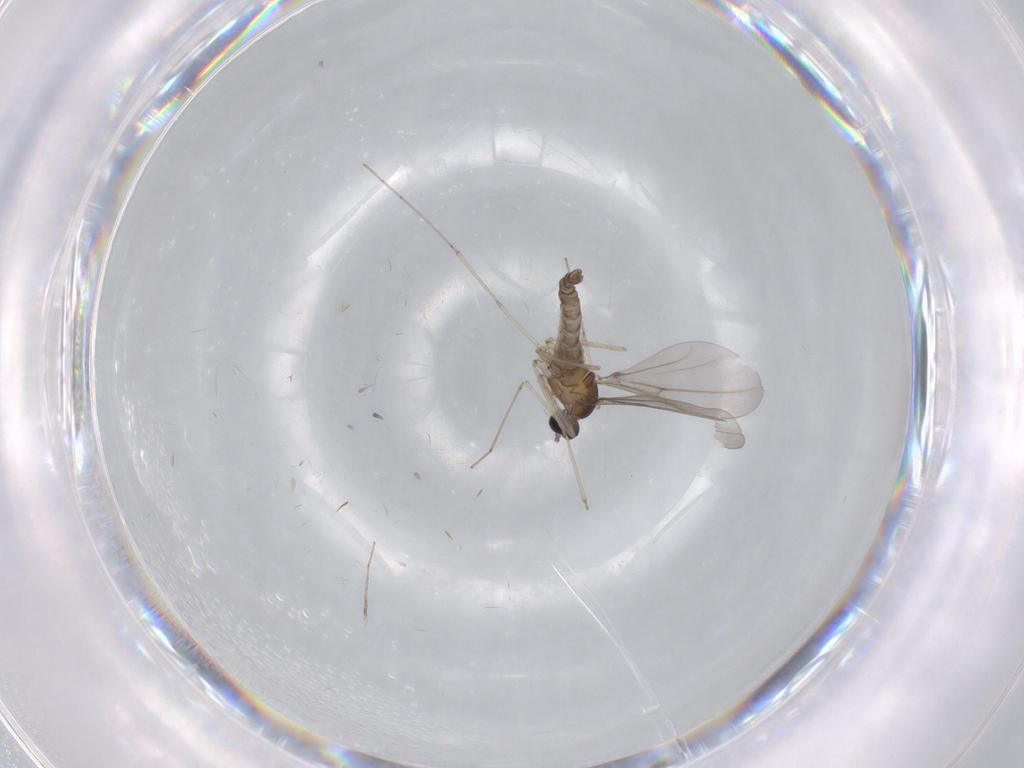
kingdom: Animalia
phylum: Arthropoda
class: Insecta
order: Diptera
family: Cecidomyiidae
